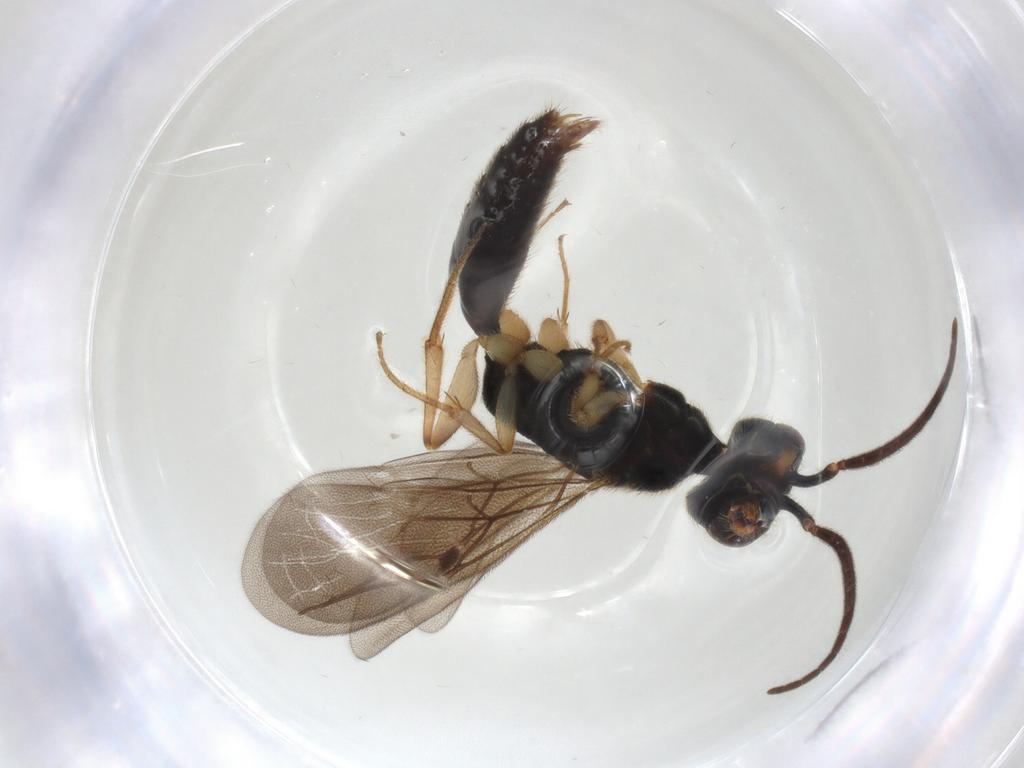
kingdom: Animalia
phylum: Arthropoda
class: Insecta
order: Hymenoptera
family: Bethylidae
